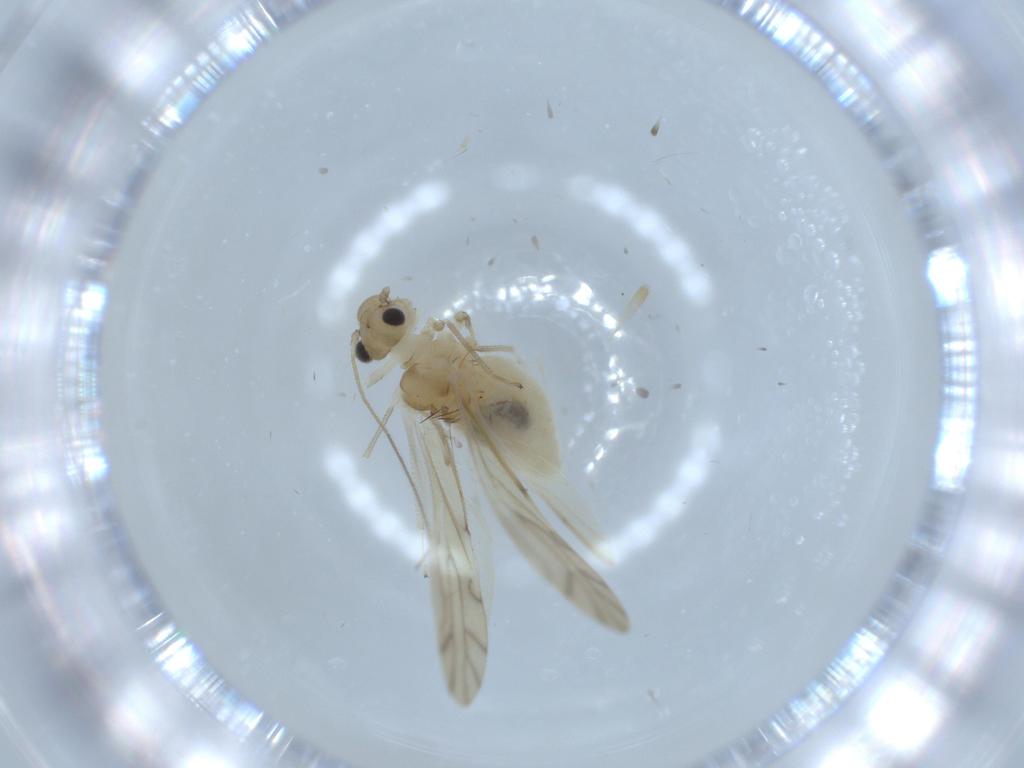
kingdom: Animalia
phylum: Arthropoda
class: Insecta
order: Psocodea
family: Caeciliusidae
